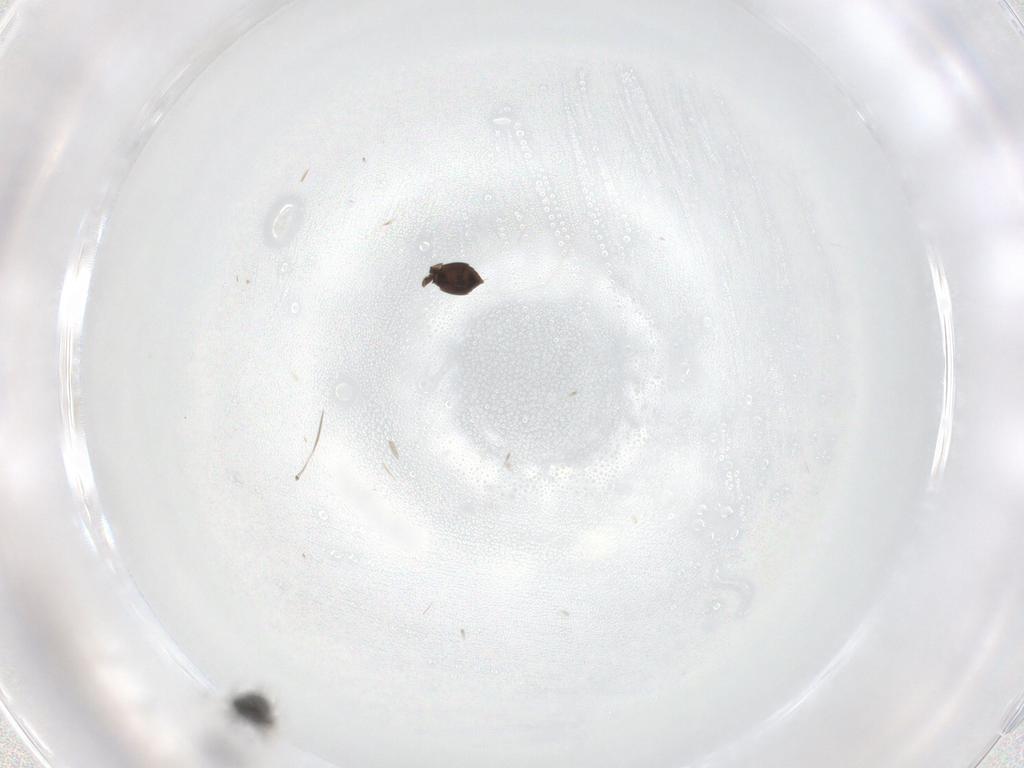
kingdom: Animalia
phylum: Arthropoda
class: Insecta
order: Hymenoptera
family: Scelionidae
